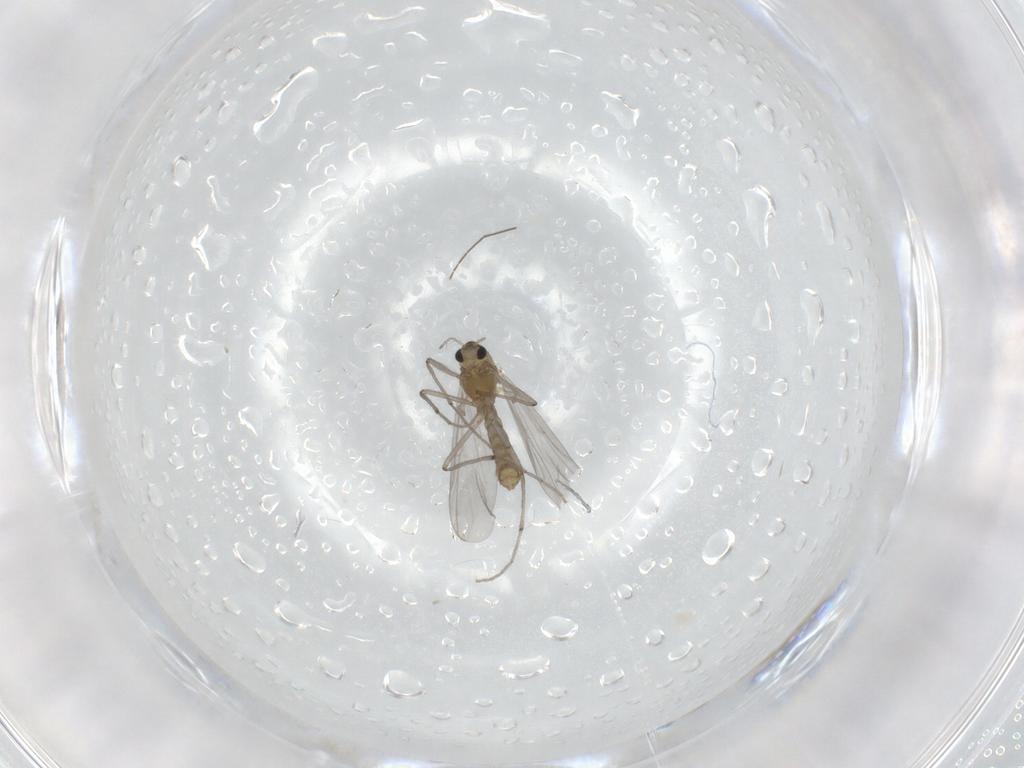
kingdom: Animalia
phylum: Arthropoda
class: Insecta
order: Diptera
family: Chironomidae
